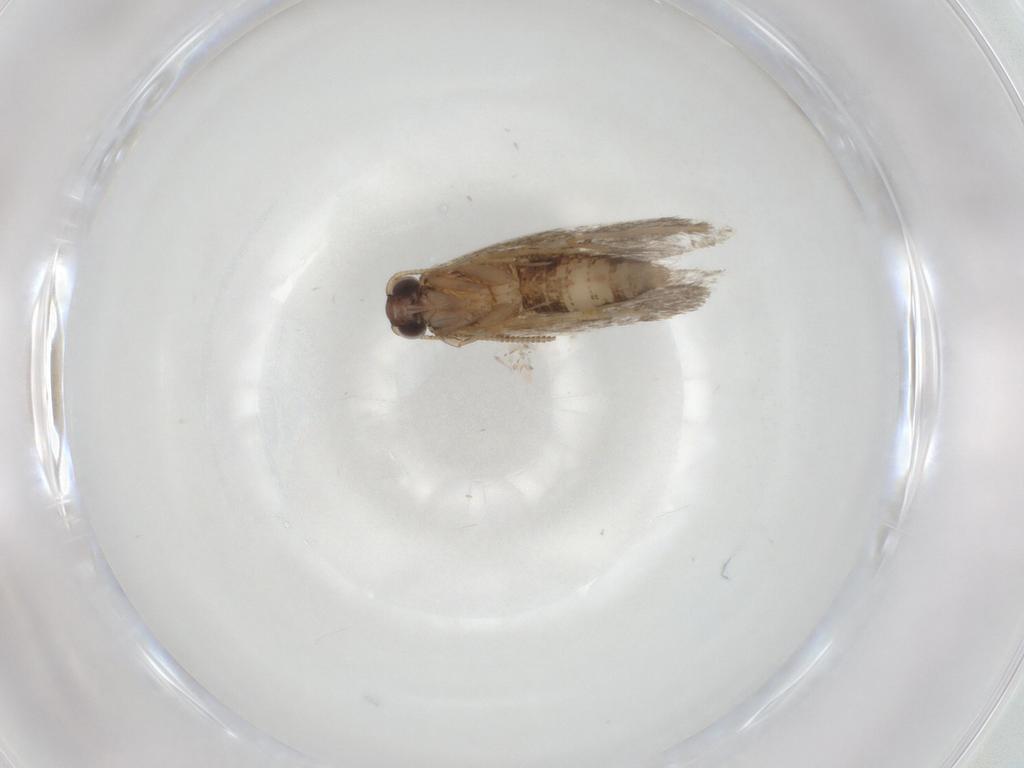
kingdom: Animalia
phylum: Arthropoda
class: Insecta
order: Lepidoptera
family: Tineidae
